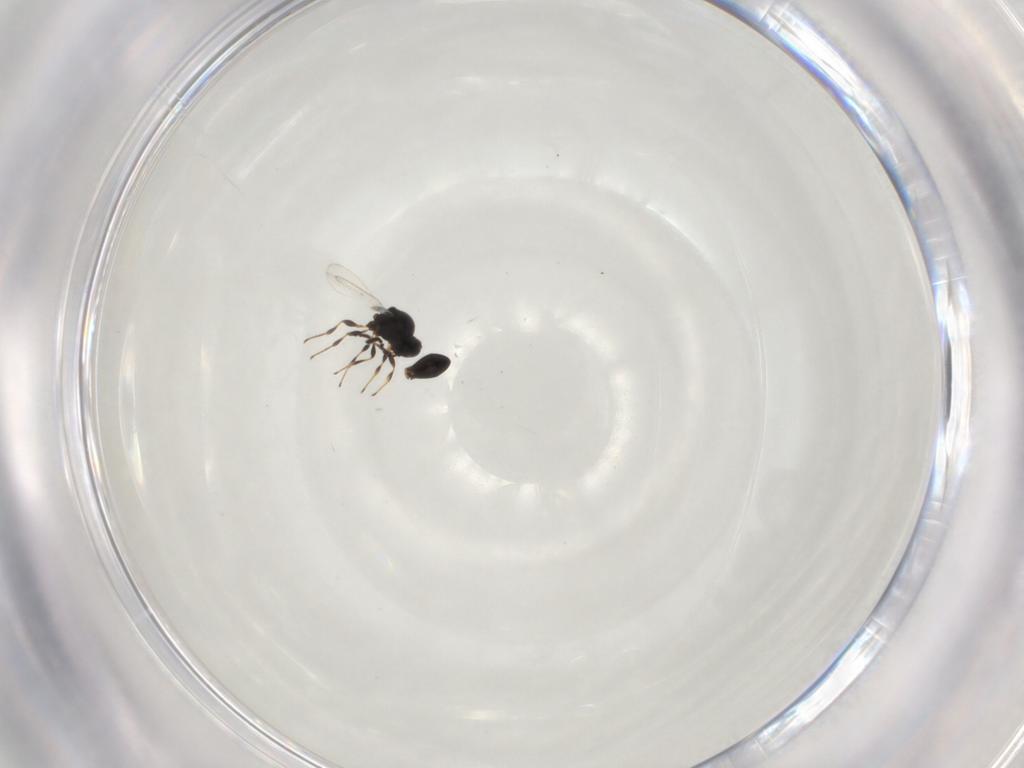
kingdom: Animalia
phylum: Arthropoda
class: Insecta
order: Hymenoptera
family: Platygastridae
